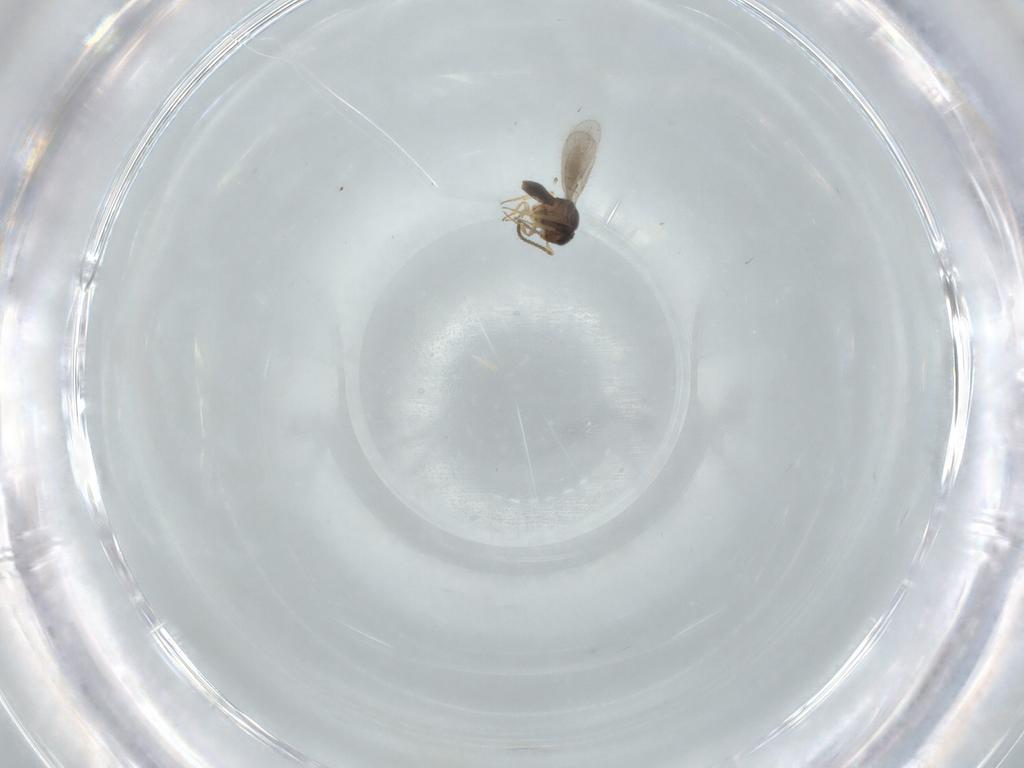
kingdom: Animalia
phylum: Arthropoda
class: Insecta
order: Hymenoptera
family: Scelionidae
